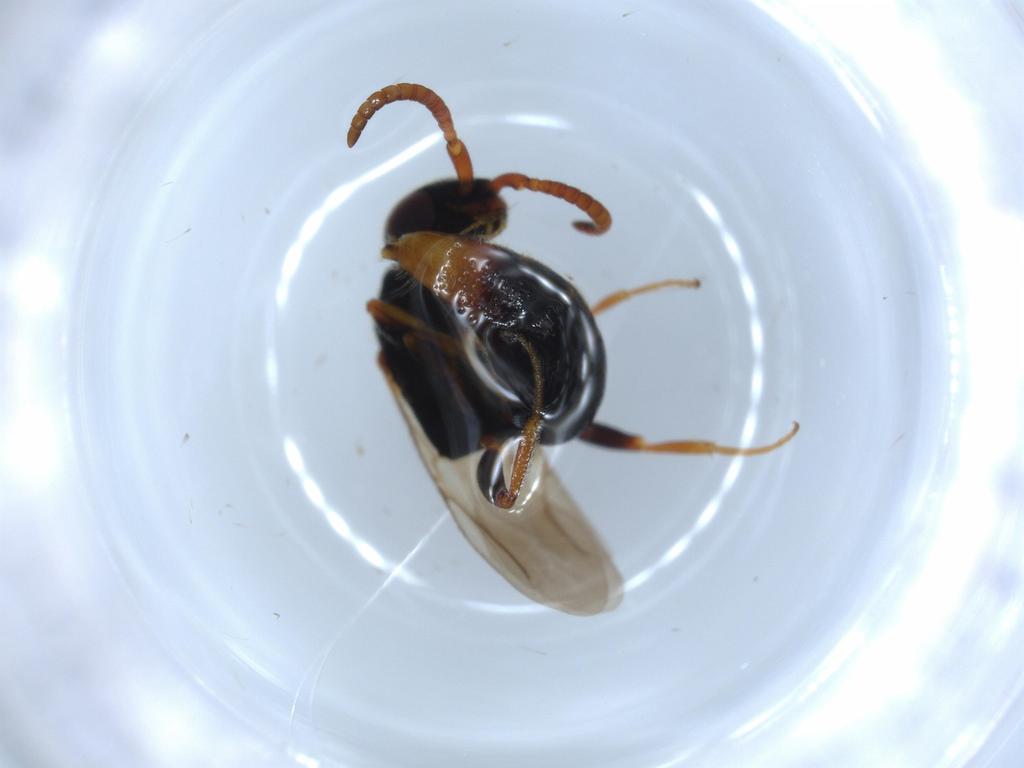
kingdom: Animalia
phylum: Arthropoda
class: Insecta
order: Hymenoptera
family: Bethylidae
